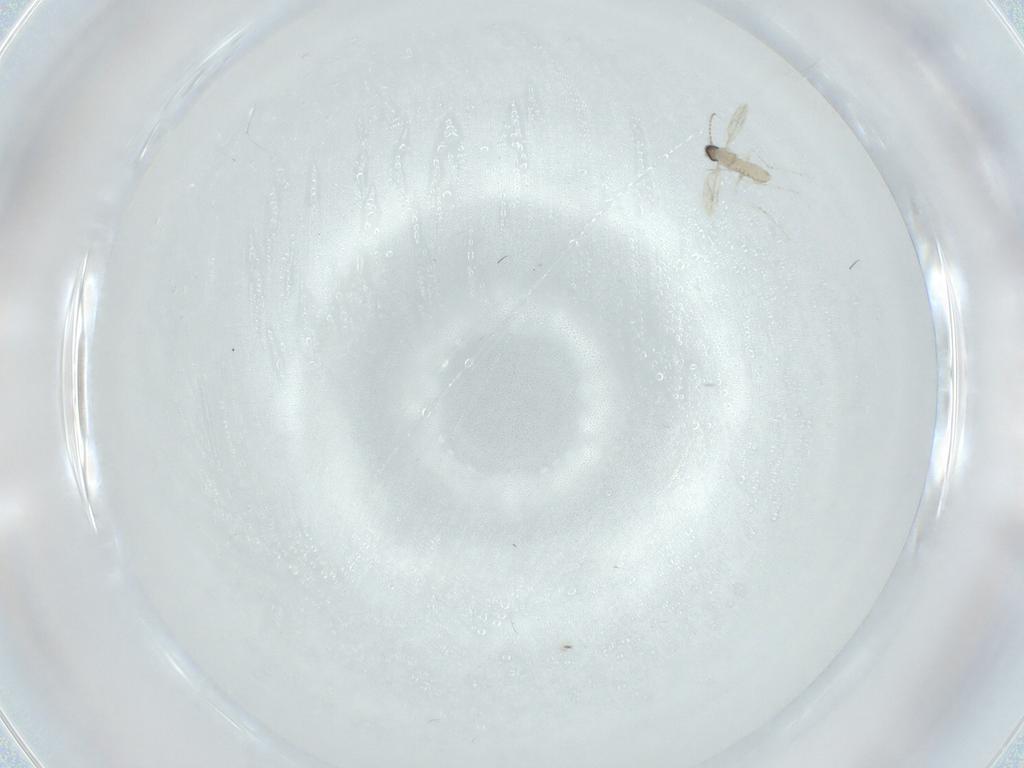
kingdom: Animalia
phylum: Arthropoda
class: Insecta
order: Diptera
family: Cecidomyiidae
